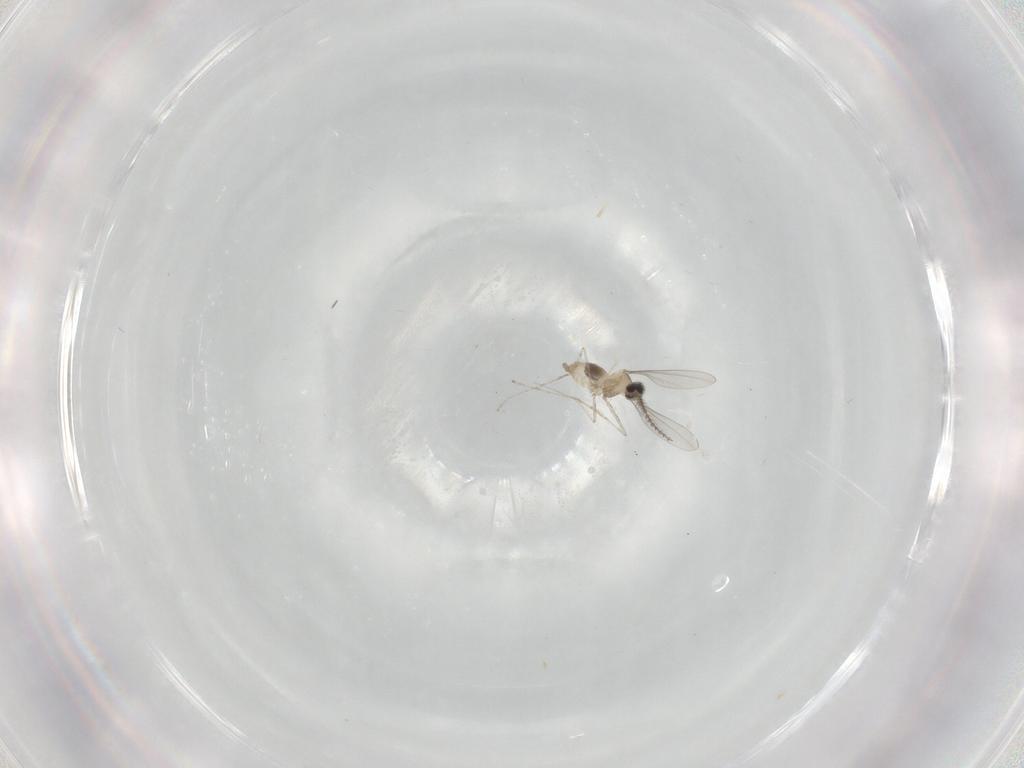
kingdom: Animalia
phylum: Arthropoda
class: Insecta
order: Diptera
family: Cecidomyiidae
